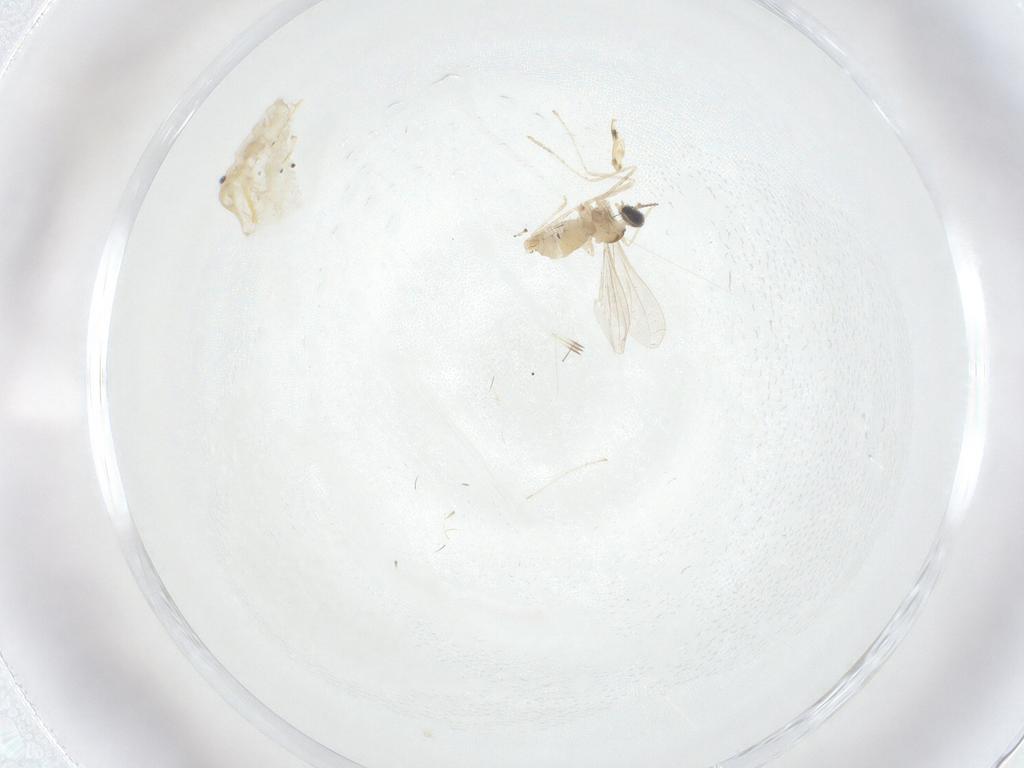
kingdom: Animalia
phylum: Arthropoda
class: Insecta
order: Diptera
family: Cecidomyiidae
